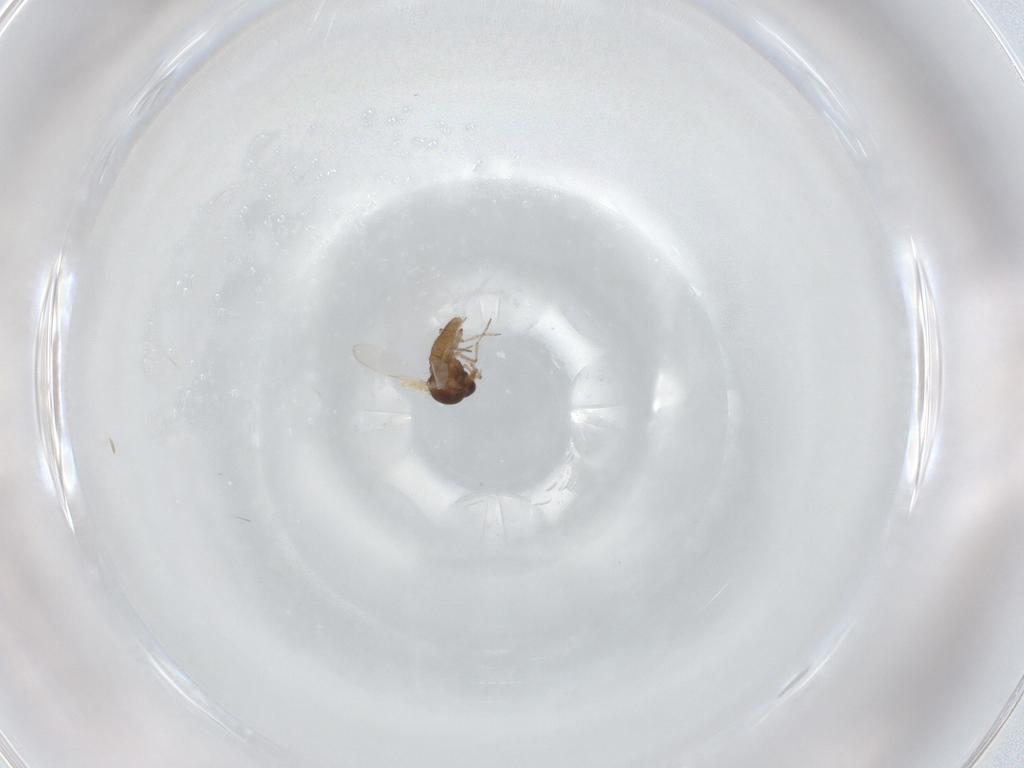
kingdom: Animalia
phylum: Arthropoda
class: Insecta
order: Diptera
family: Ceratopogonidae
